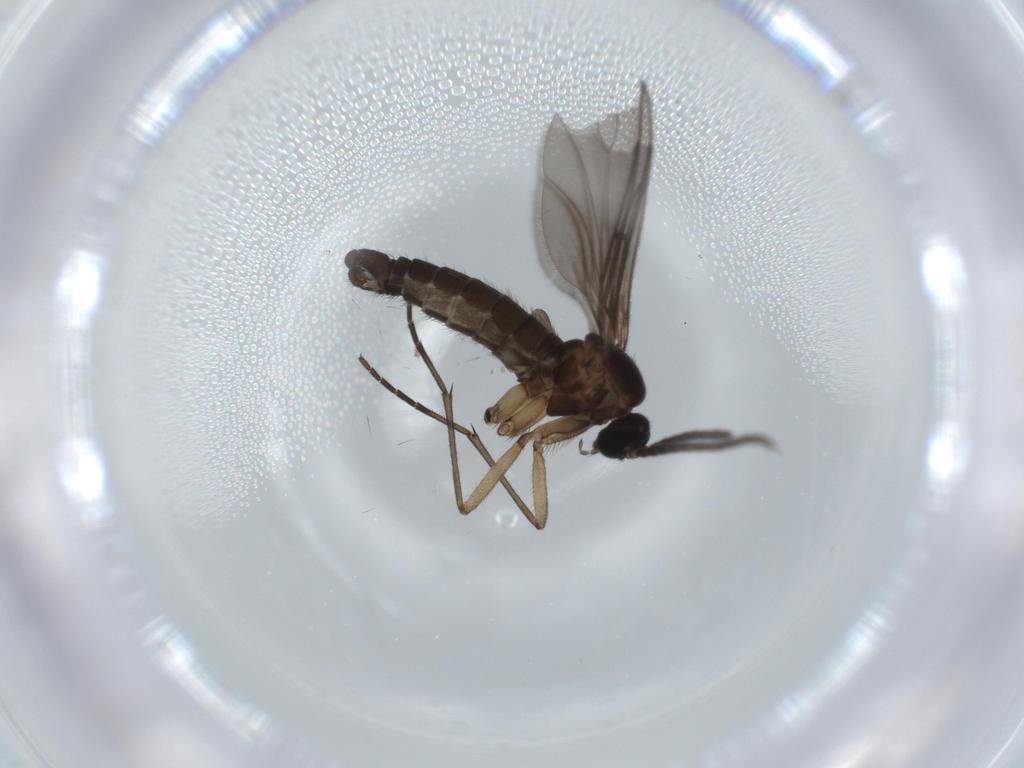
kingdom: Animalia
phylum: Arthropoda
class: Insecta
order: Diptera
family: Sciaridae
